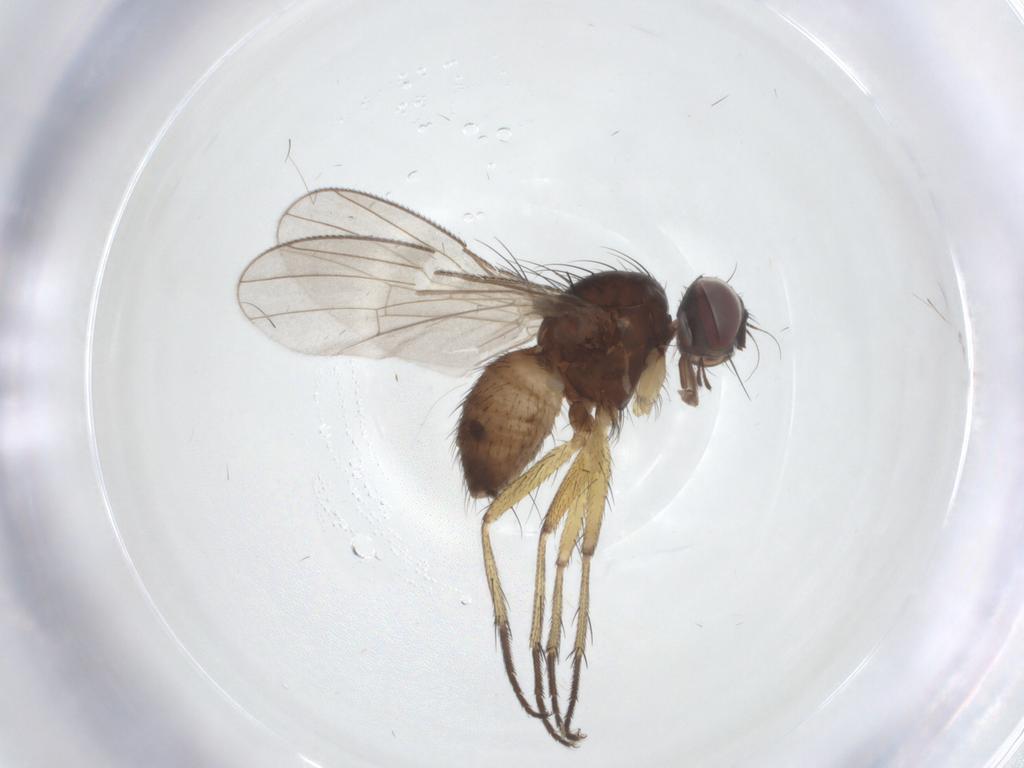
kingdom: Animalia
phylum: Arthropoda
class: Insecta
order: Diptera
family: Muscidae
